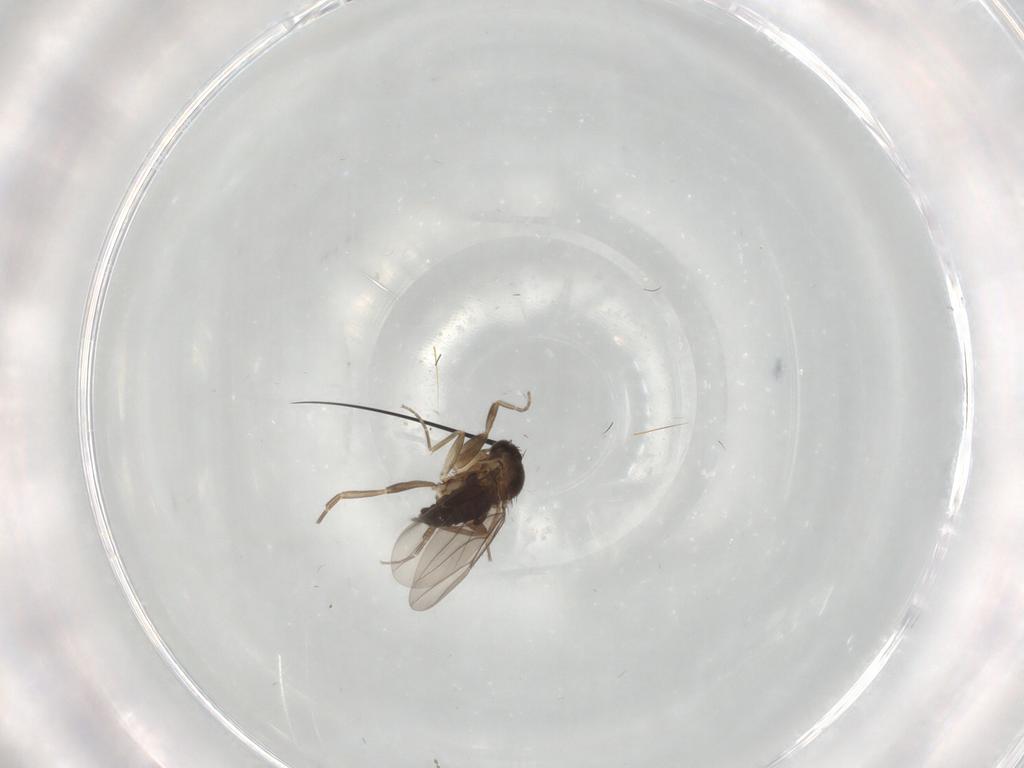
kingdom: Animalia
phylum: Arthropoda
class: Insecta
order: Diptera
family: Phoridae
